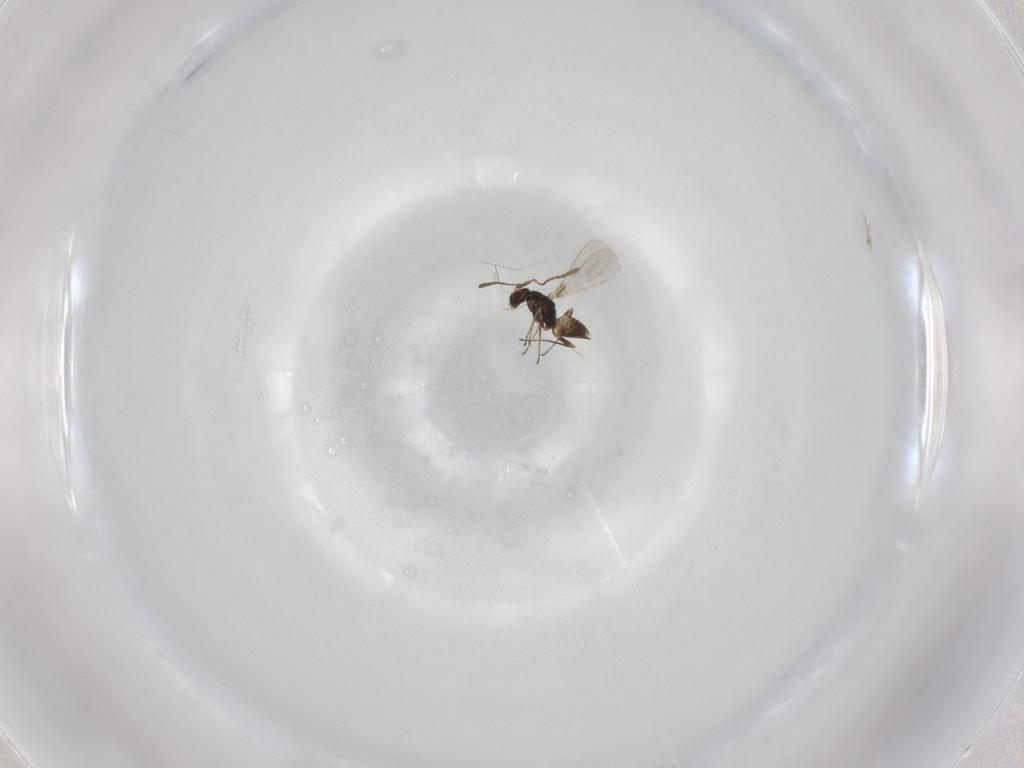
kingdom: Animalia
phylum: Arthropoda
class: Insecta
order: Hymenoptera
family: Mymaridae
